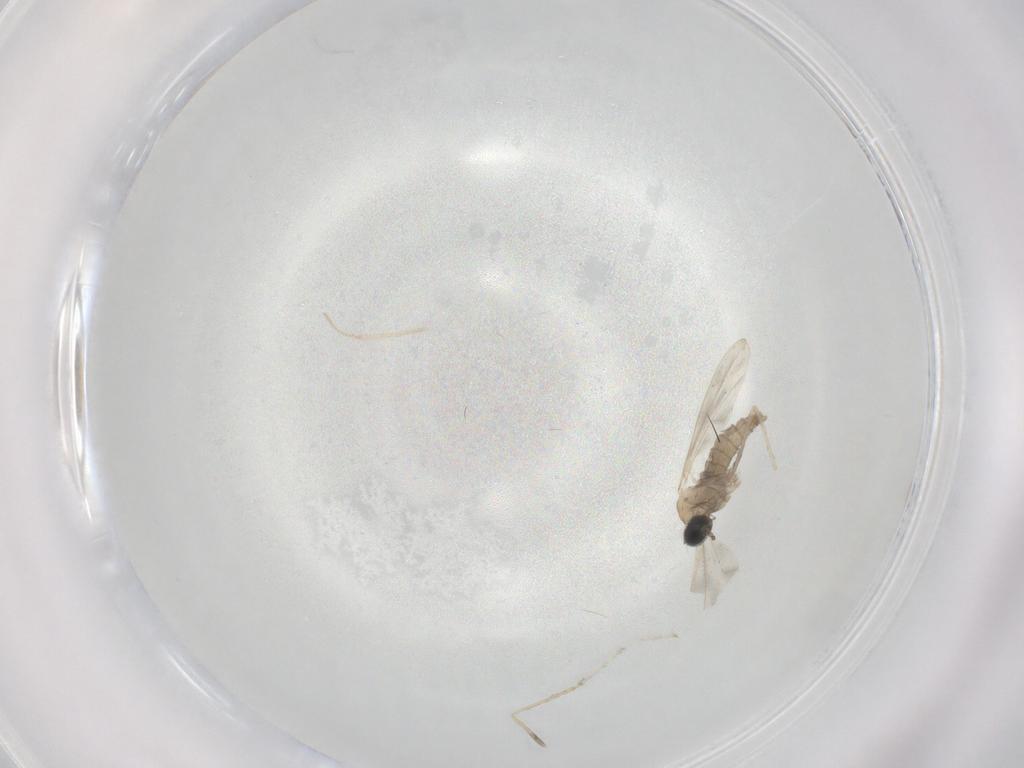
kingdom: Animalia
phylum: Arthropoda
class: Insecta
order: Diptera
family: Cecidomyiidae
